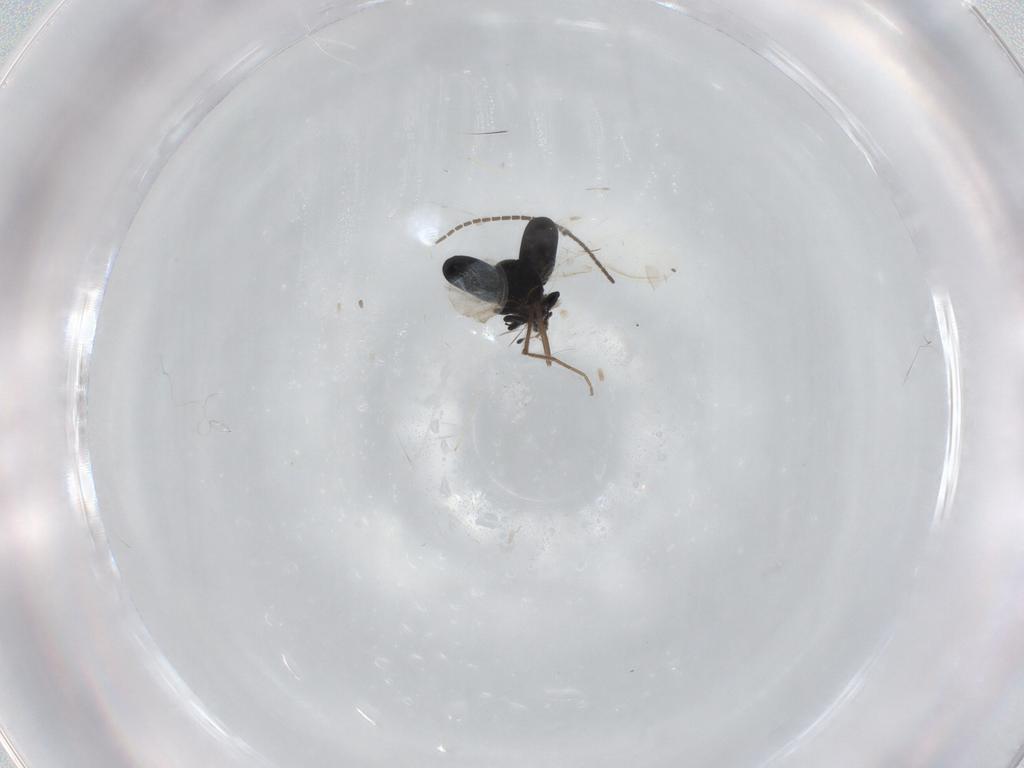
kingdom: Animalia
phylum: Arthropoda
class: Insecta
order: Coleoptera
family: Curculionidae
